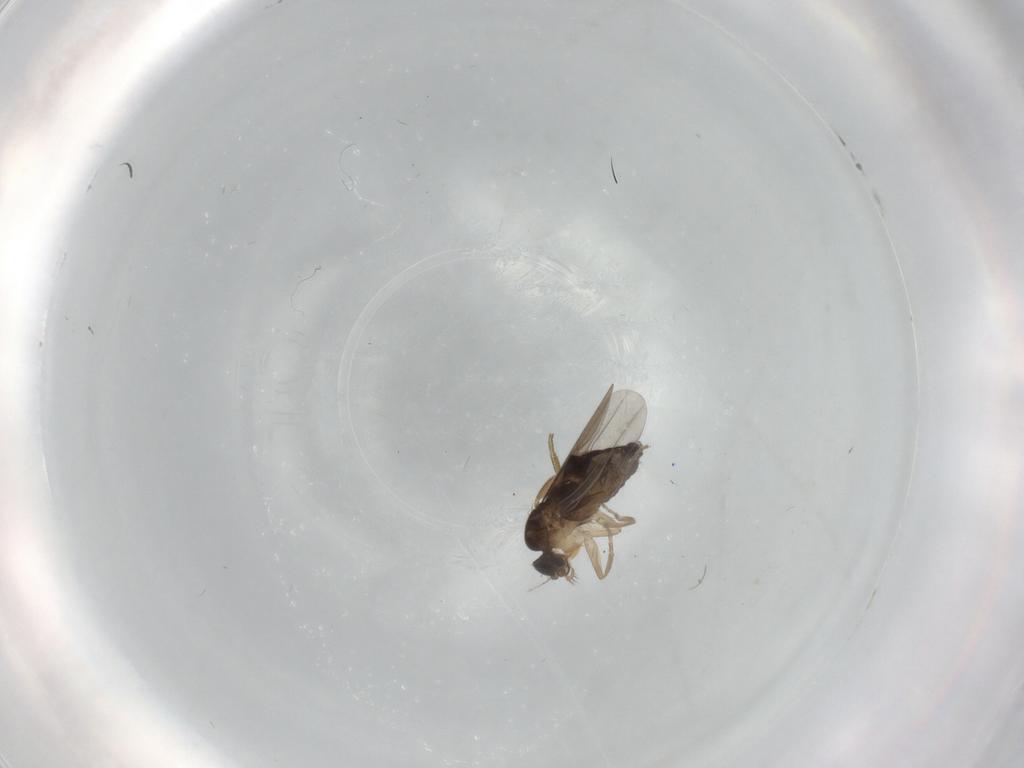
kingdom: Animalia
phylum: Arthropoda
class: Insecta
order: Diptera
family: Phoridae
